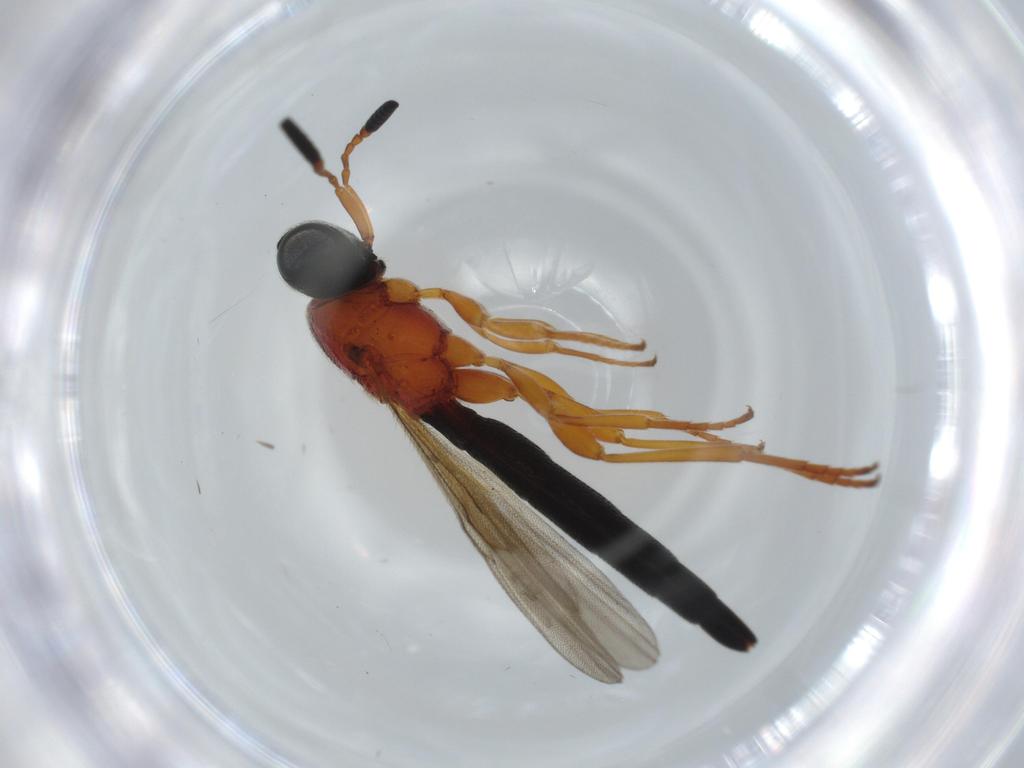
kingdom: Animalia
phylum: Arthropoda
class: Insecta
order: Hymenoptera
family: Scelionidae
